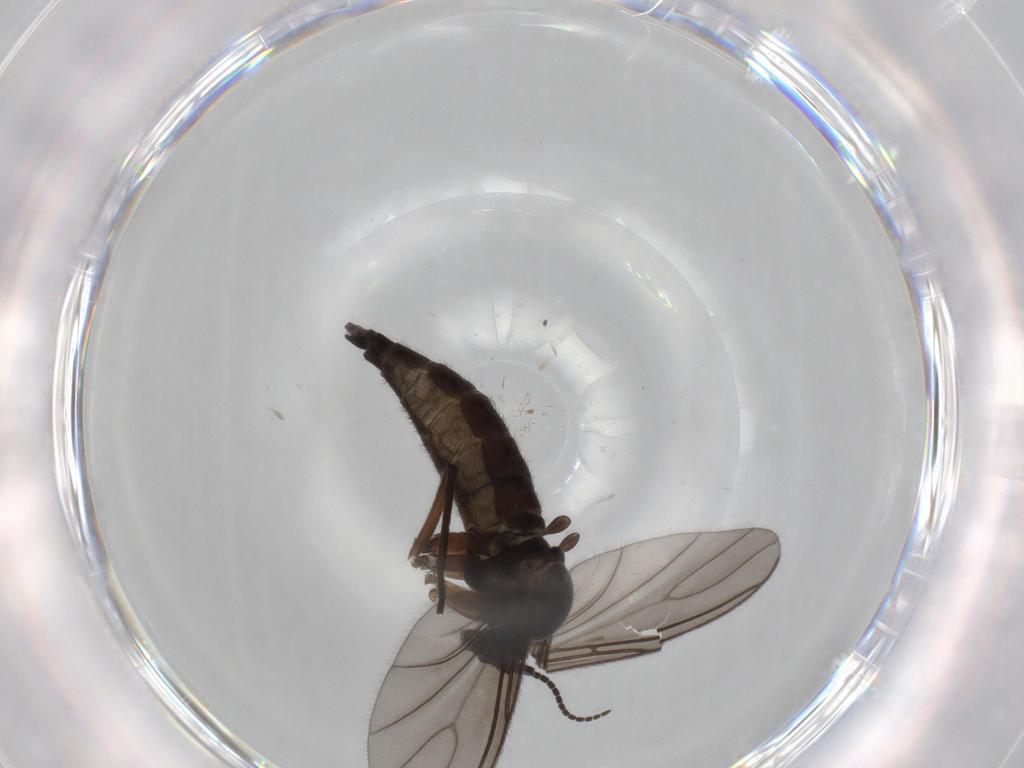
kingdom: Animalia
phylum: Arthropoda
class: Insecta
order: Diptera
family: Sciaridae
